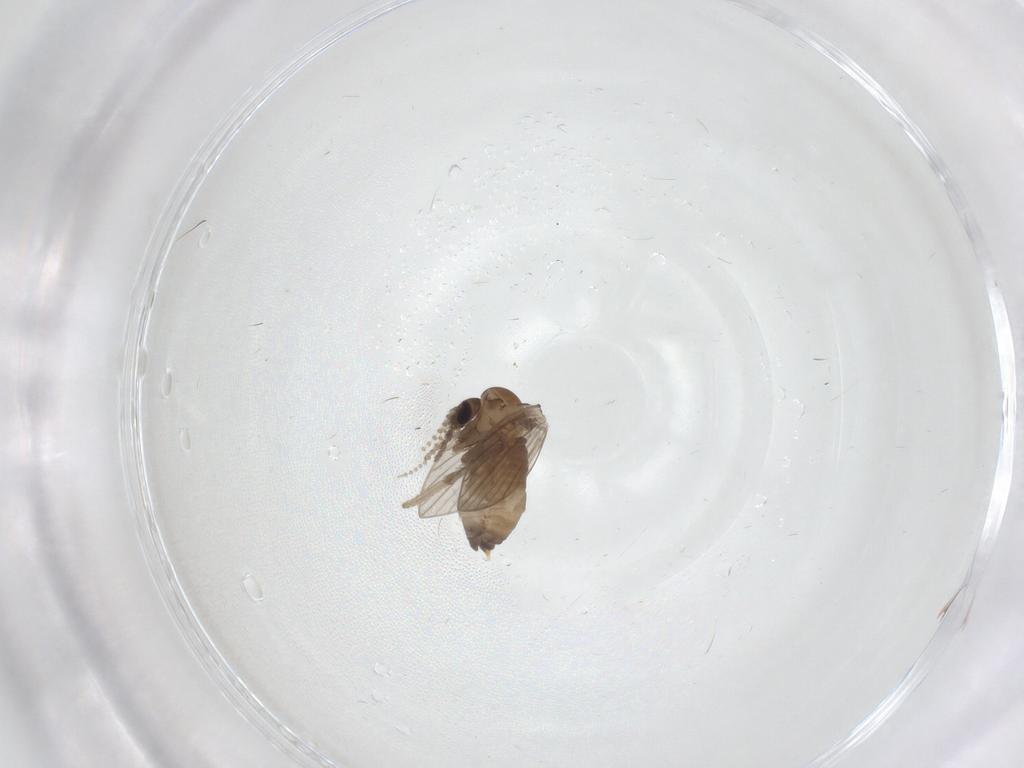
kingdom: Animalia
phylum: Arthropoda
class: Insecta
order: Diptera
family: Psychodidae
